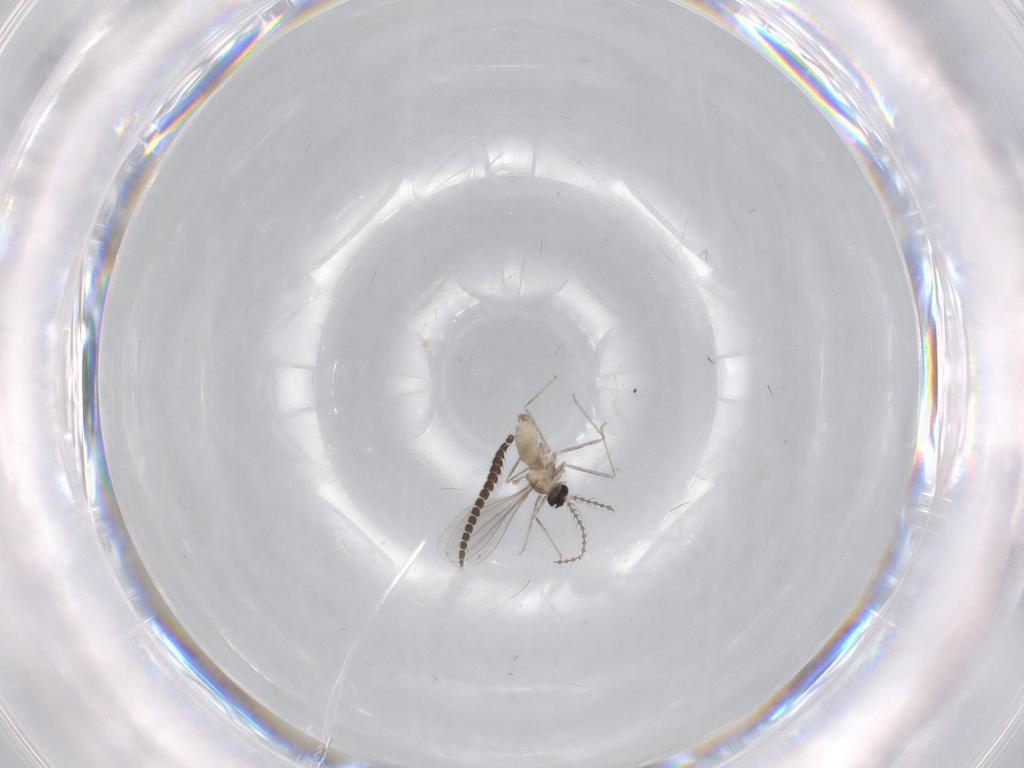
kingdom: Animalia
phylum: Arthropoda
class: Insecta
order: Diptera
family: Ditomyiidae
